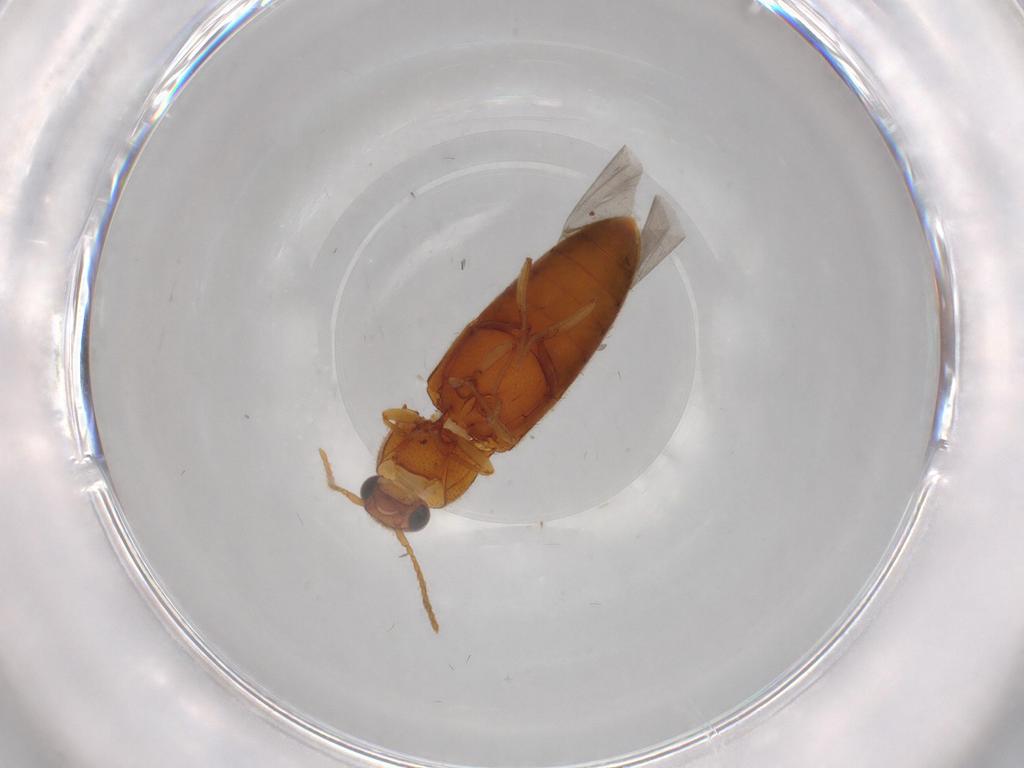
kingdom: Animalia
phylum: Arthropoda
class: Insecta
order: Coleoptera
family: Elateridae
